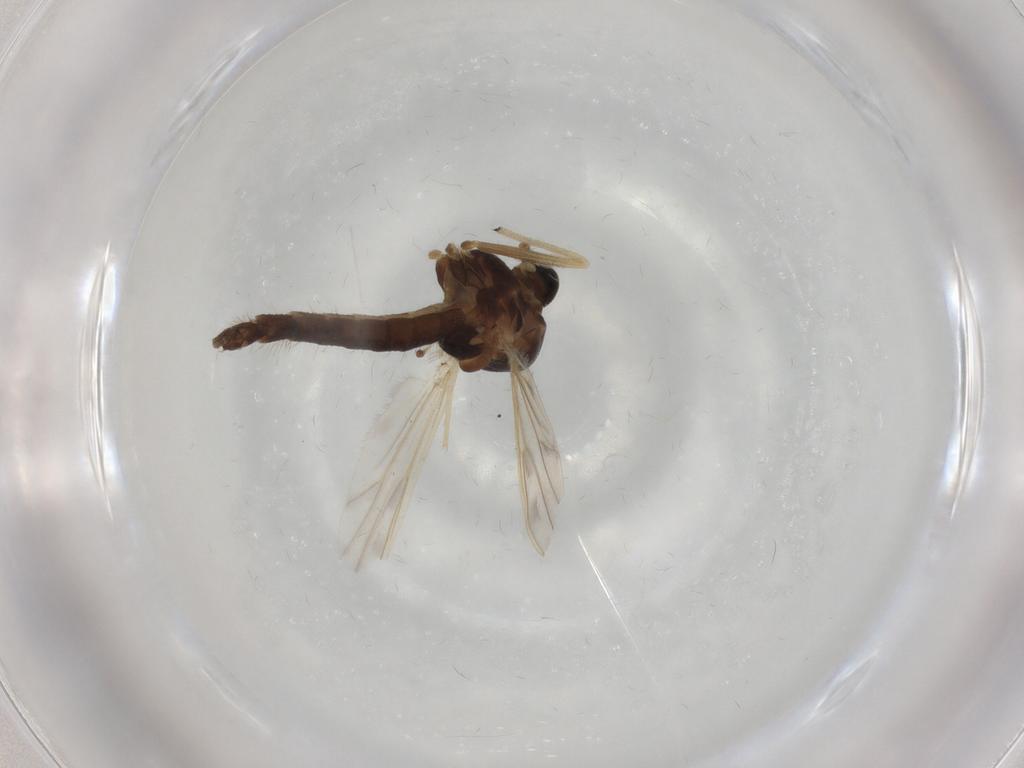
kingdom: Animalia
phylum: Arthropoda
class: Insecta
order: Diptera
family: Chironomidae
